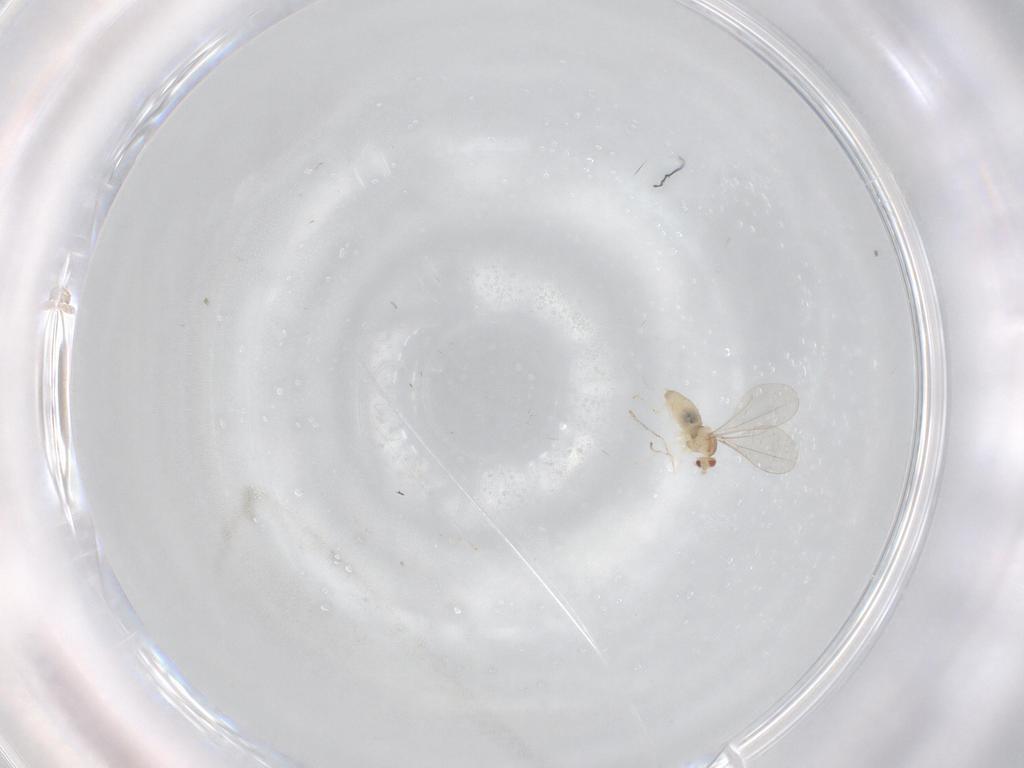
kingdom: Animalia
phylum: Arthropoda
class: Insecta
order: Diptera
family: Cecidomyiidae
